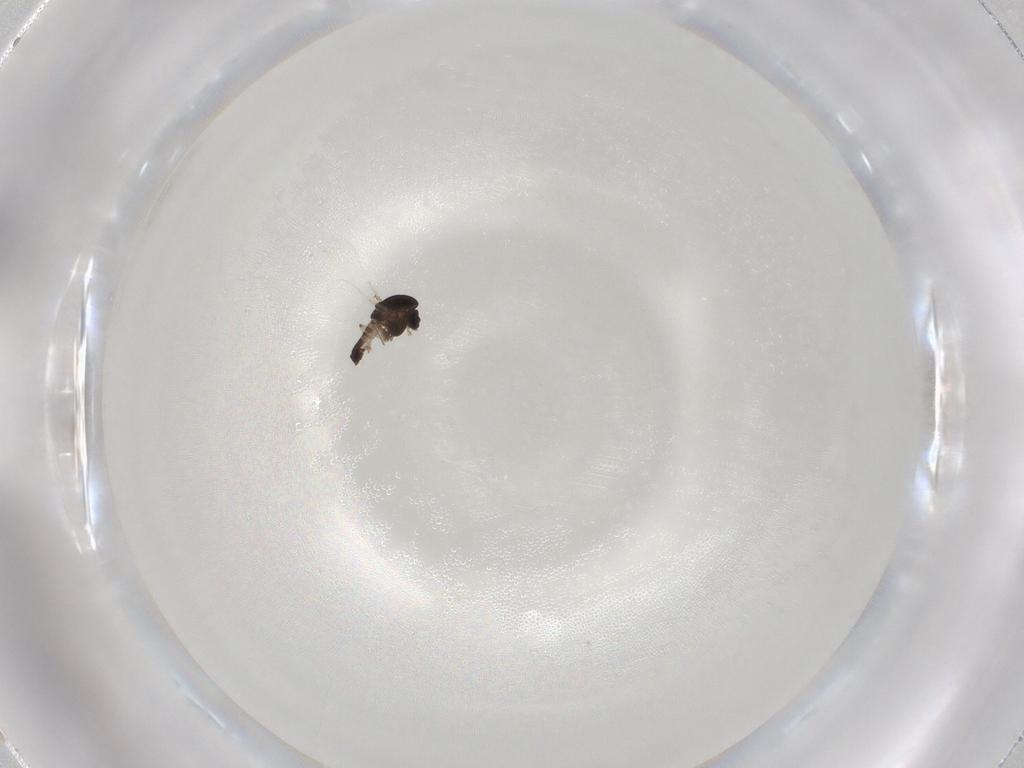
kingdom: Animalia
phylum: Arthropoda
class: Insecta
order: Diptera
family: Chironomidae
